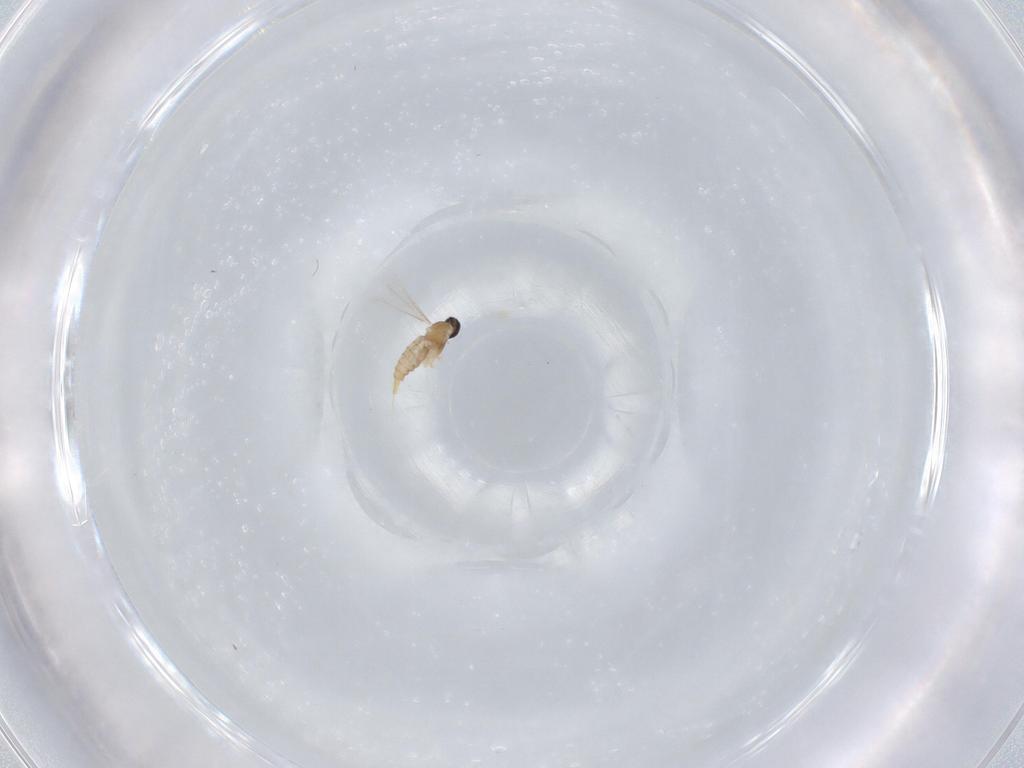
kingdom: Animalia
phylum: Arthropoda
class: Insecta
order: Diptera
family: Cecidomyiidae
